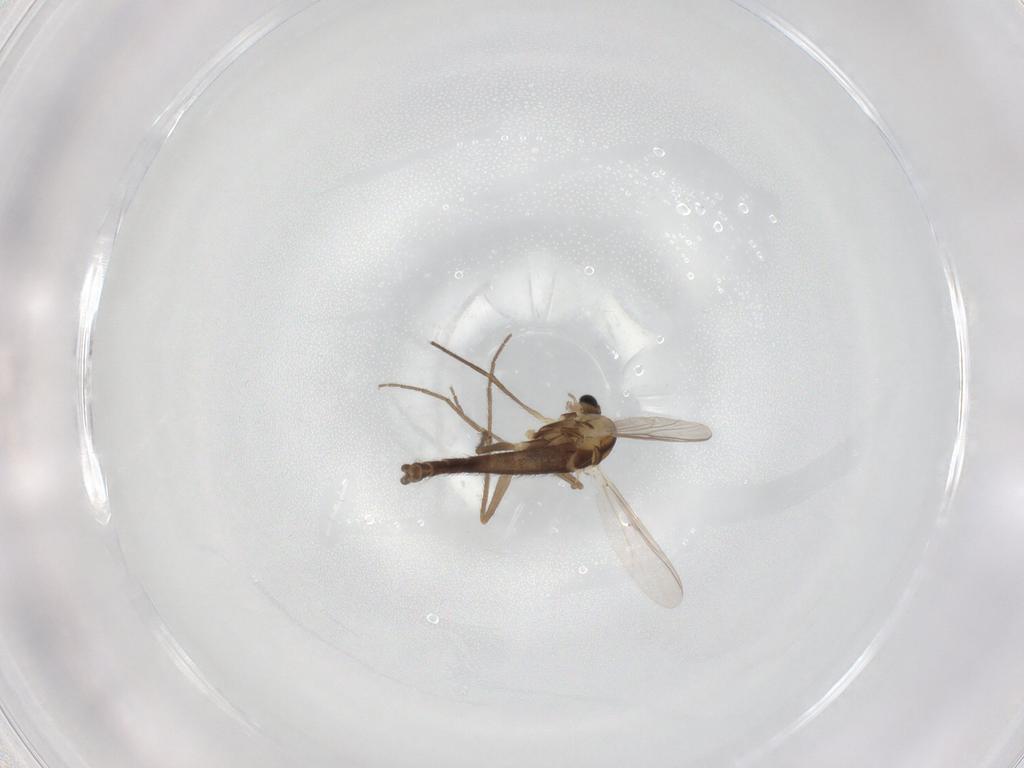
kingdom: Animalia
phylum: Arthropoda
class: Insecta
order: Diptera
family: Chironomidae
